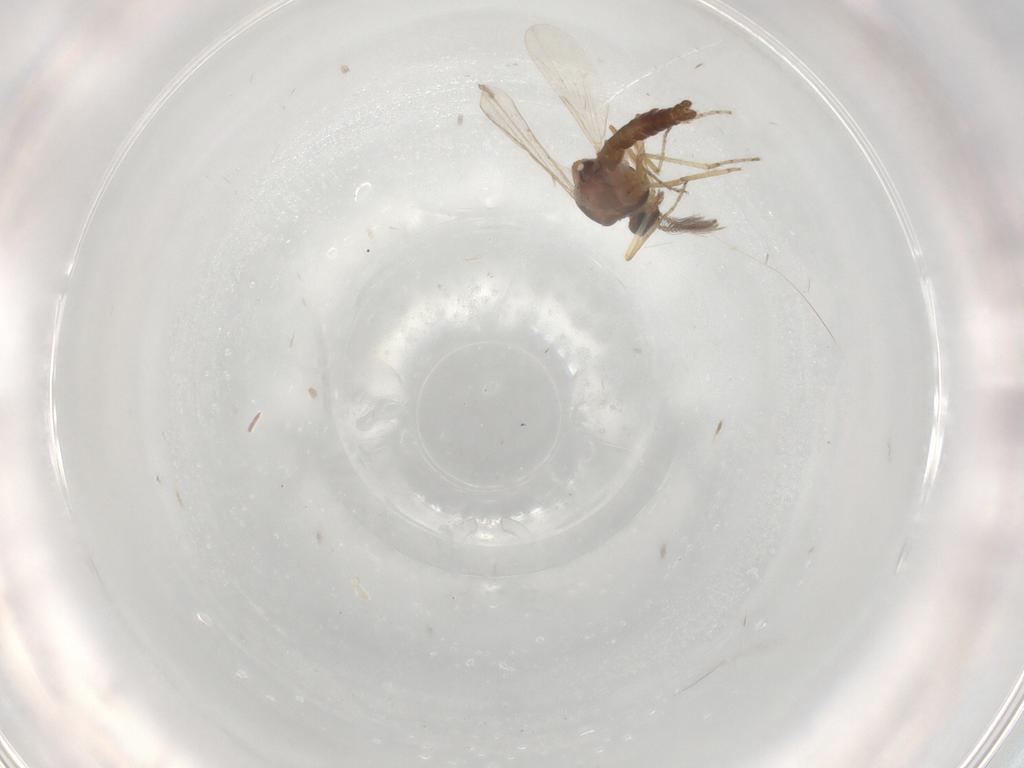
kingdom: Animalia
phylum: Arthropoda
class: Insecta
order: Diptera
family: Ceratopogonidae
